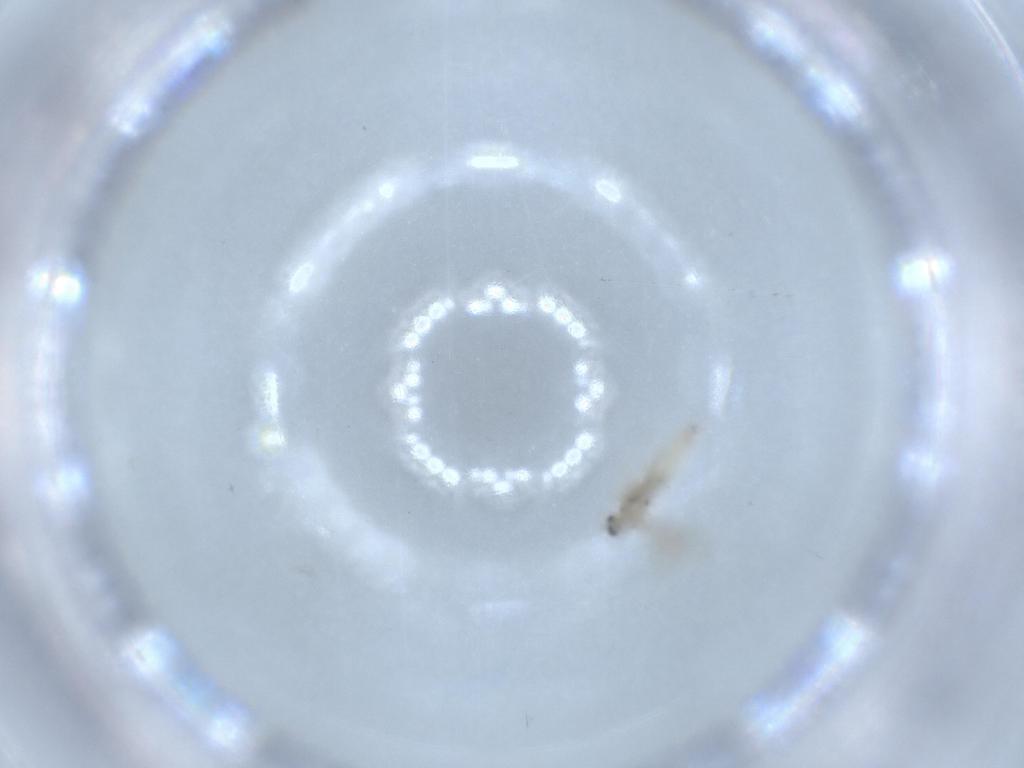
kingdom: Animalia
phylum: Arthropoda
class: Insecta
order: Diptera
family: Cecidomyiidae
